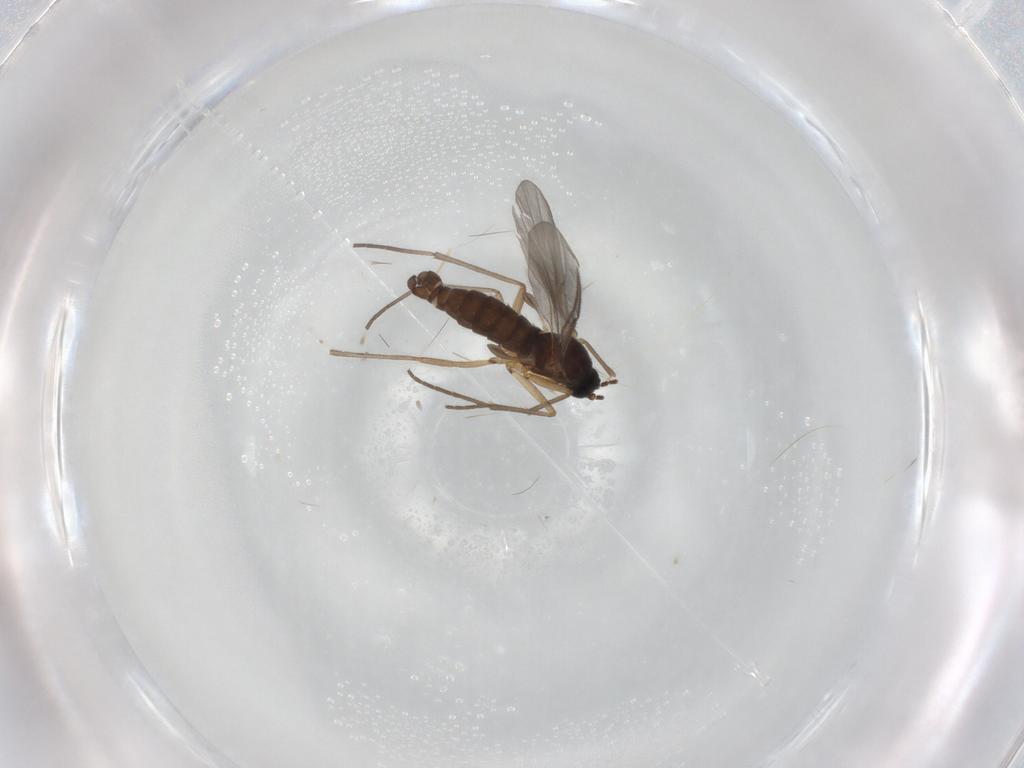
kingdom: Animalia
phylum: Arthropoda
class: Insecta
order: Diptera
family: Sciaridae
